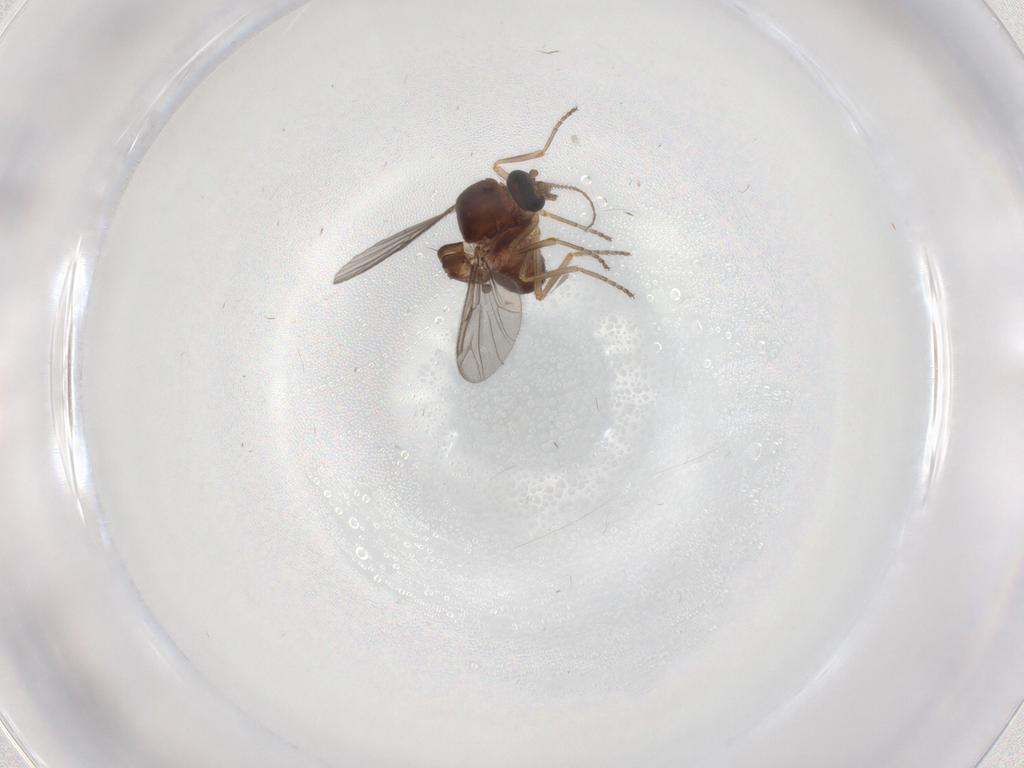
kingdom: Animalia
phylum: Arthropoda
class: Insecta
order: Diptera
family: Ceratopogonidae
